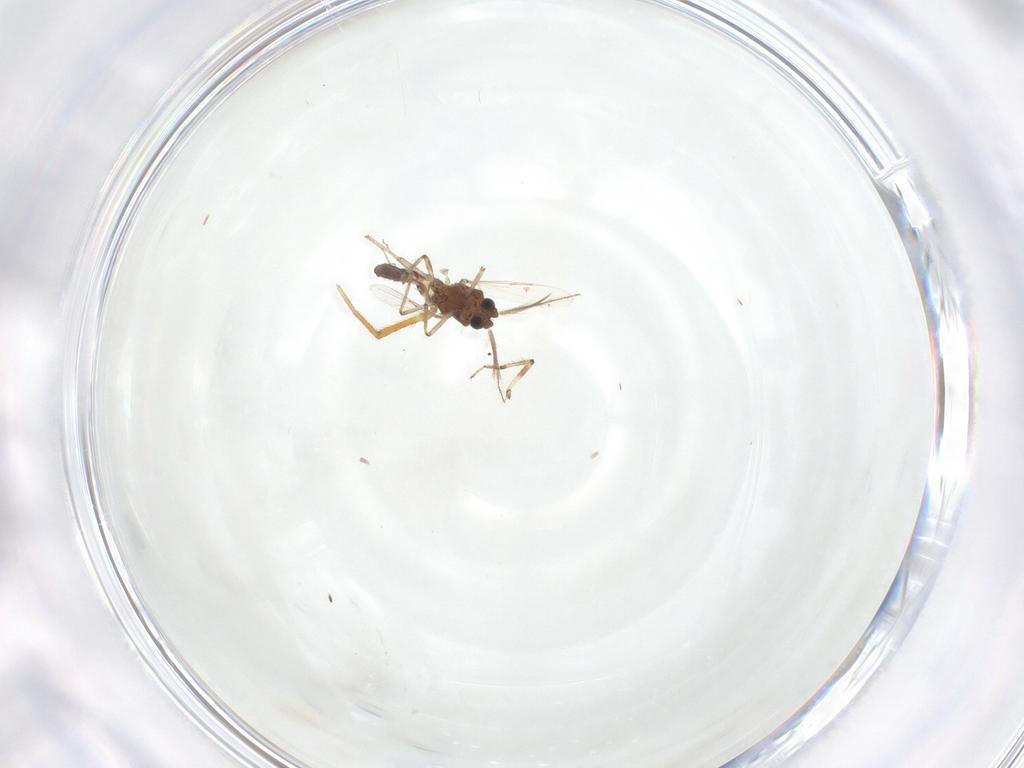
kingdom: Animalia
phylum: Arthropoda
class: Insecta
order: Diptera
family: Ceratopogonidae
